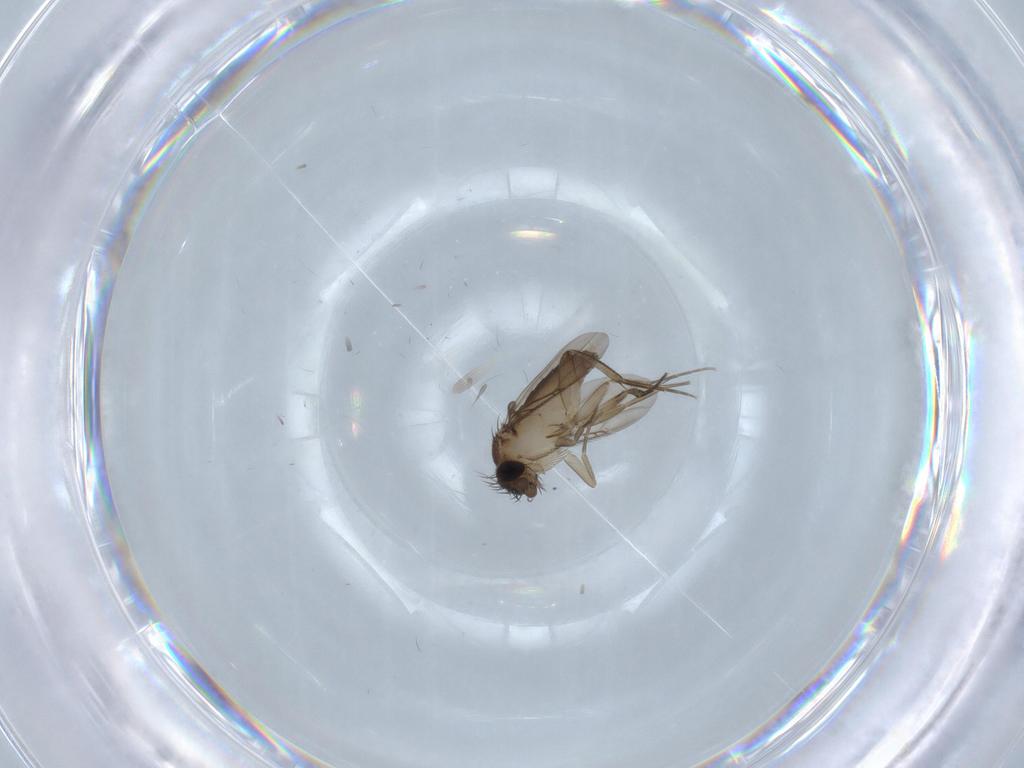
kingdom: Animalia
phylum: Arthropoda
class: Insecta
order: Diptera
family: Phoridae
